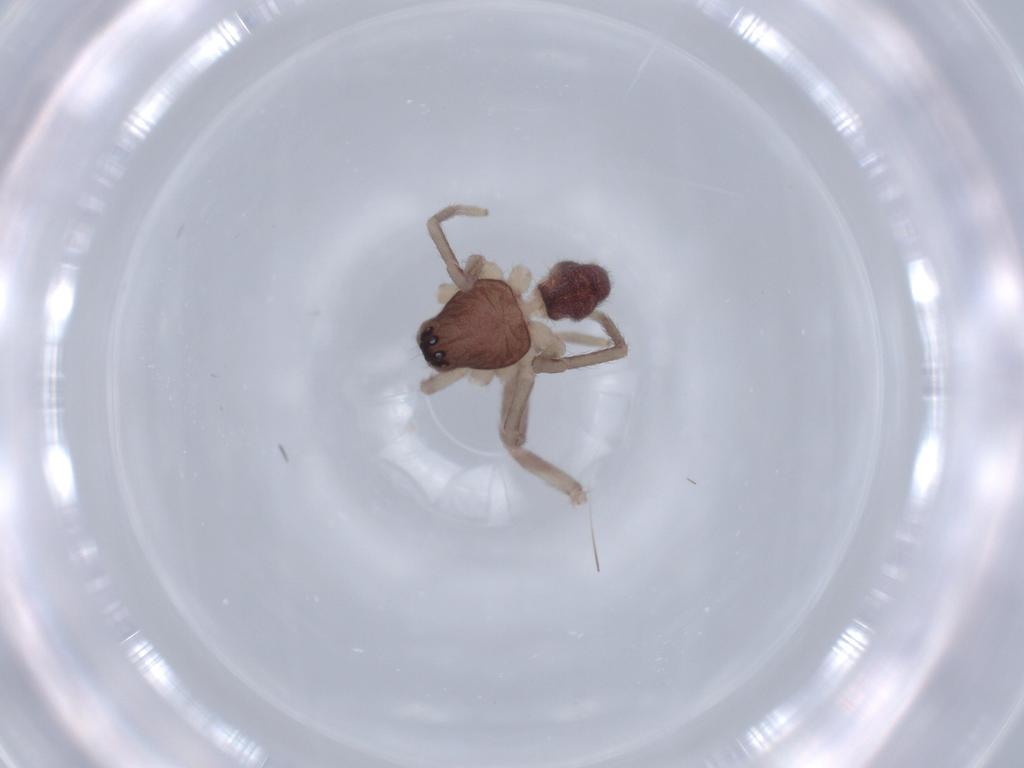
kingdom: Animalia
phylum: Arthropoda
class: Arachnida
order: Araneae
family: Corinnidae
